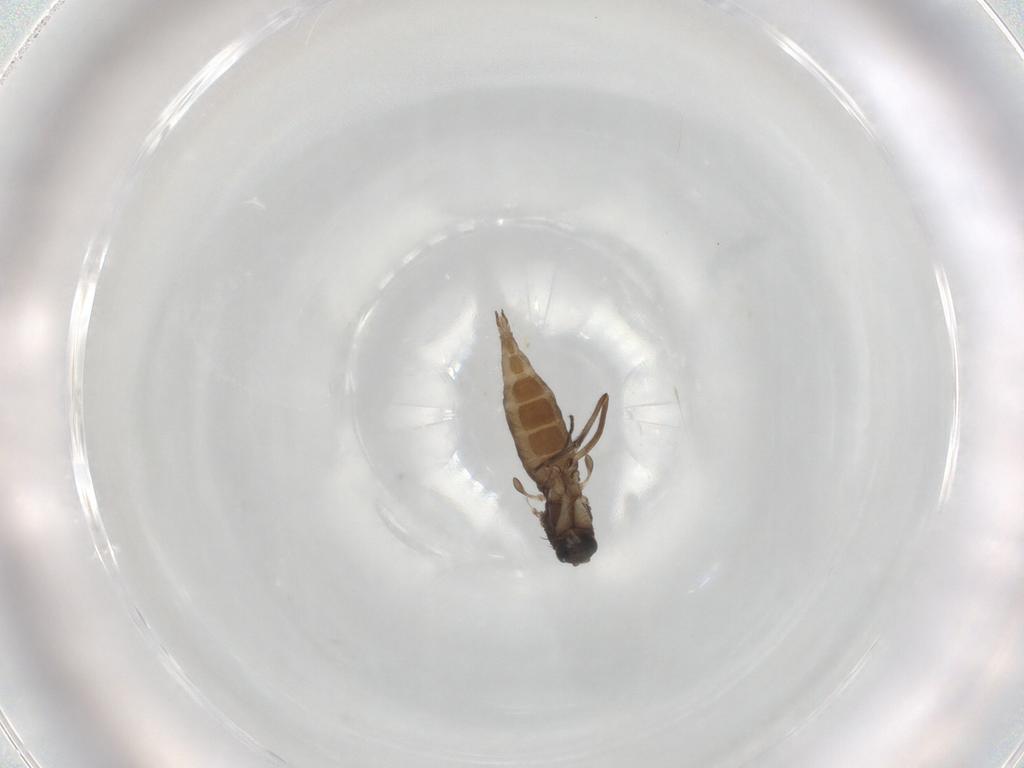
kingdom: Animalia
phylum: Arthropoda
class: Insecta
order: Diptera
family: Sciaridae
